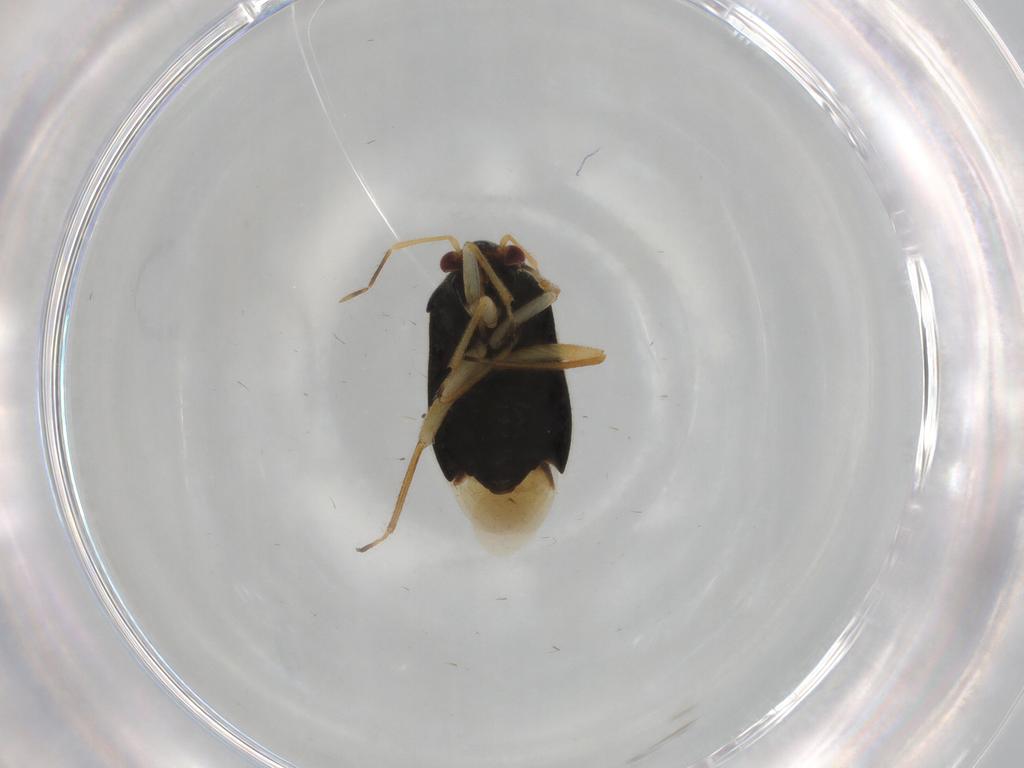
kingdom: Animalia
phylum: Arthropoda
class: Insecta
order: Hemiptera
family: Miridae
